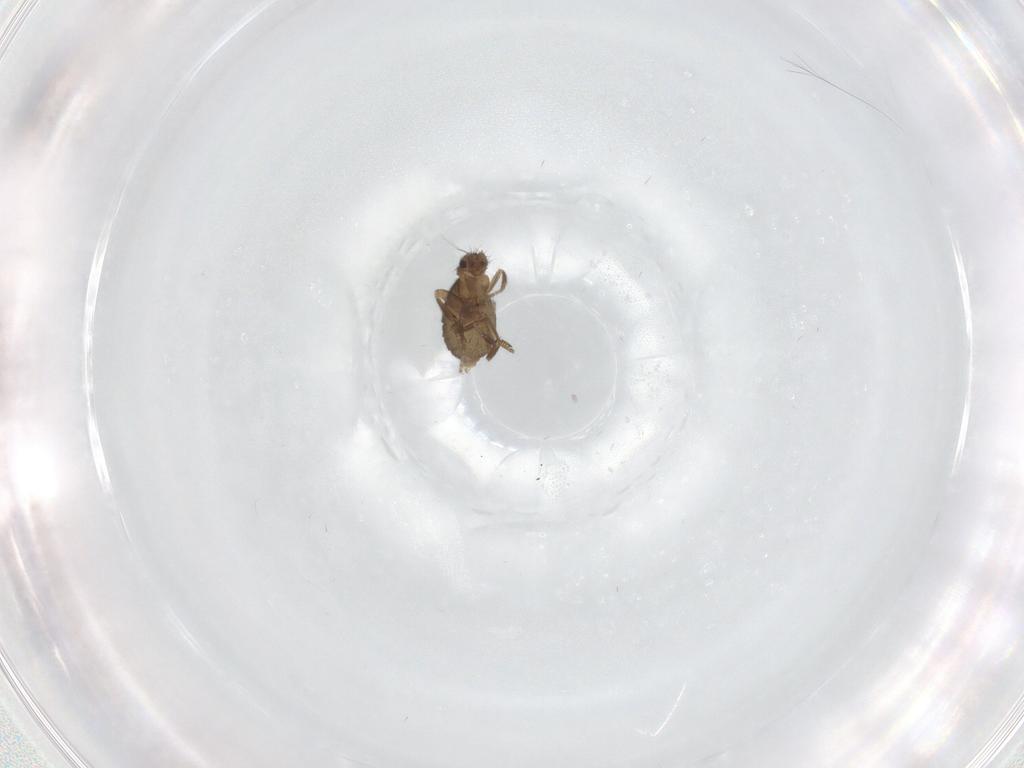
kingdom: Animalia
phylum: Arthropoda
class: Insecta
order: Diptera
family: Phoridae
